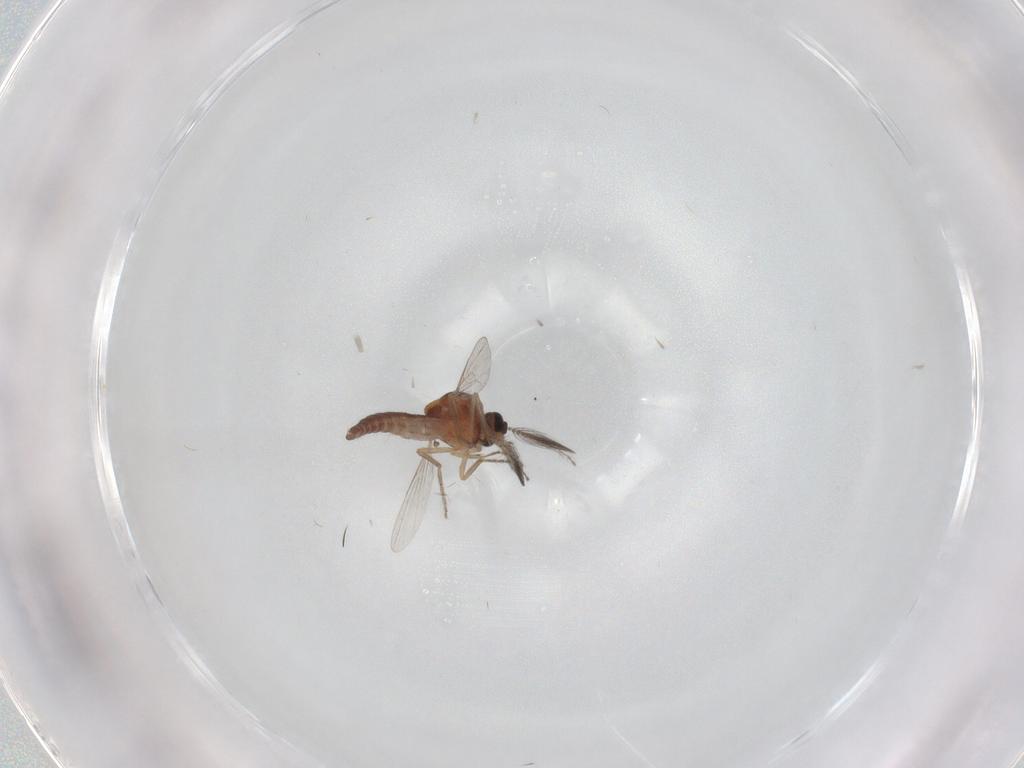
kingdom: Animalia
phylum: Arthropoda
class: Insecta
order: Diptera
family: Ceratopogonidae
